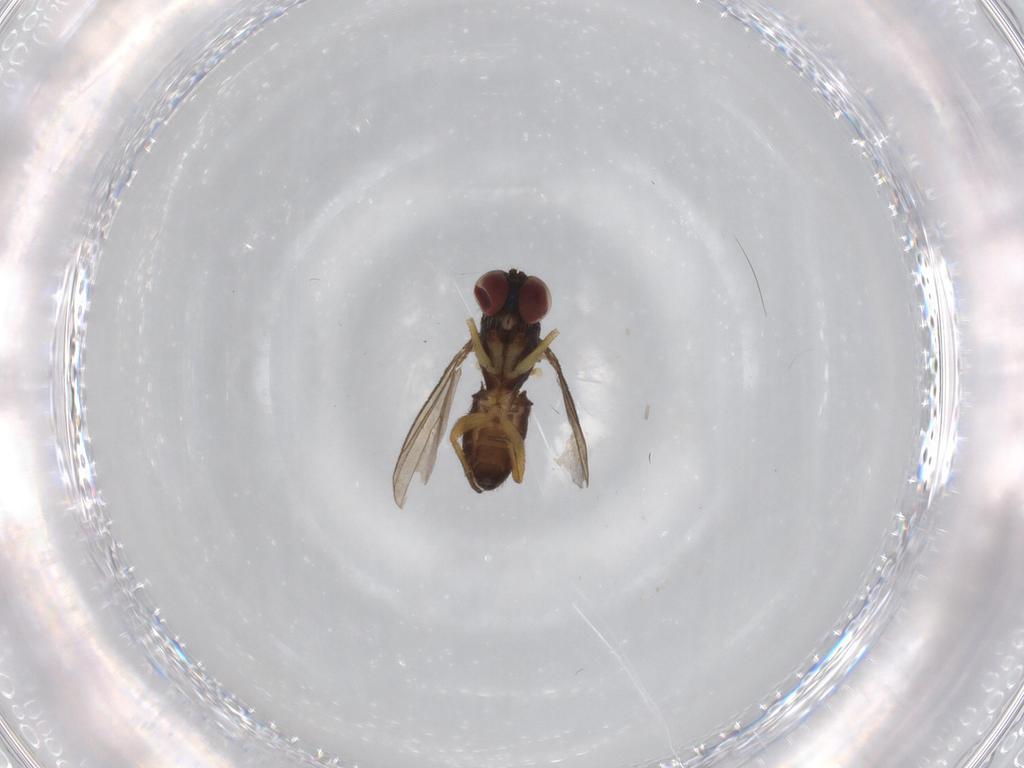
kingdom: Animalia
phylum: Arthropoda
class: Insecta
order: Diptera
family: Dolichopodidae
